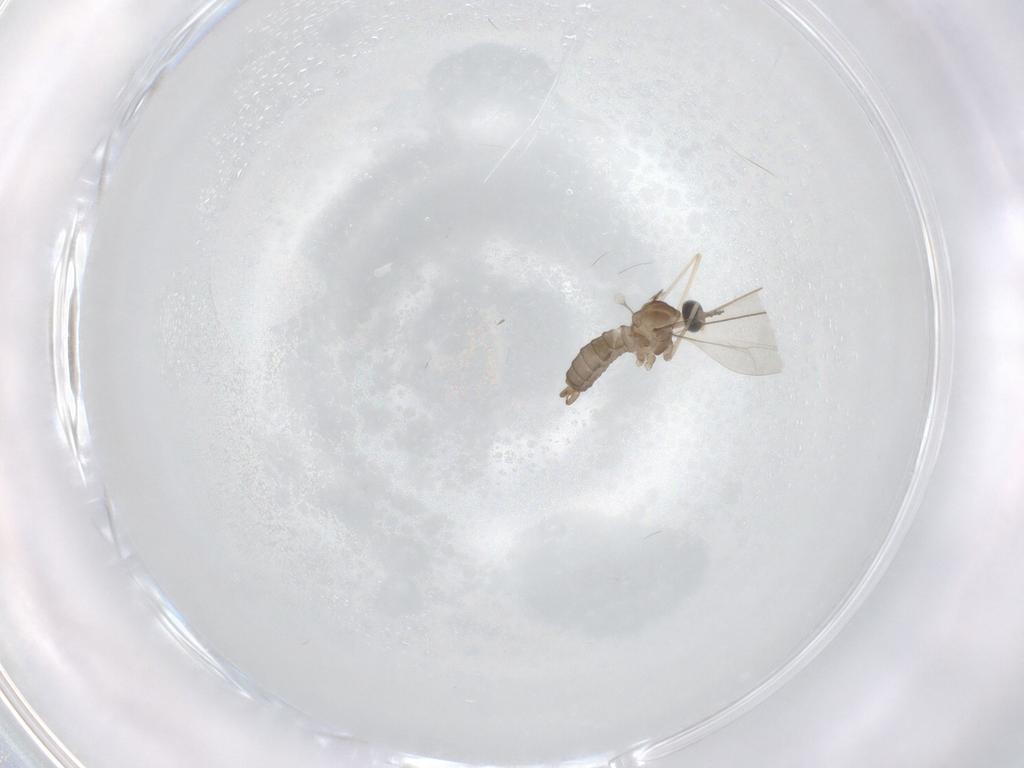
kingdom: Animalia
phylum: Arthropoda
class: Insecta
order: Diptera
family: Cecidomyiidae
